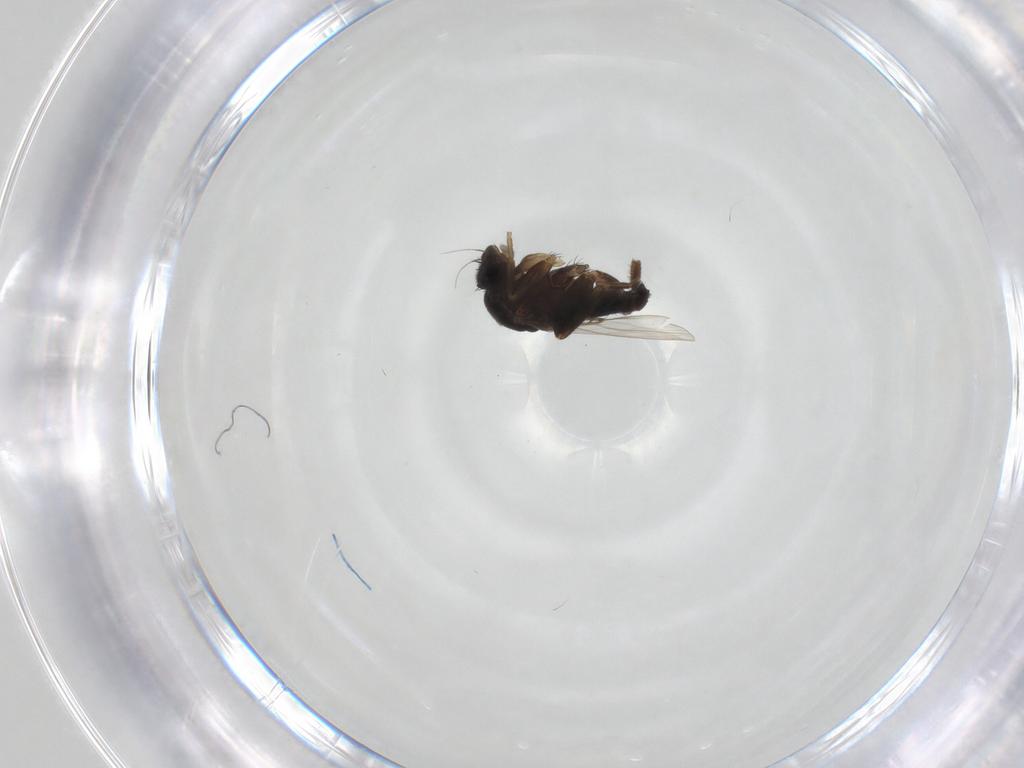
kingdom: Animalia
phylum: Arthropoda
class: Insecta
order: Diptera
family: Phoridae
